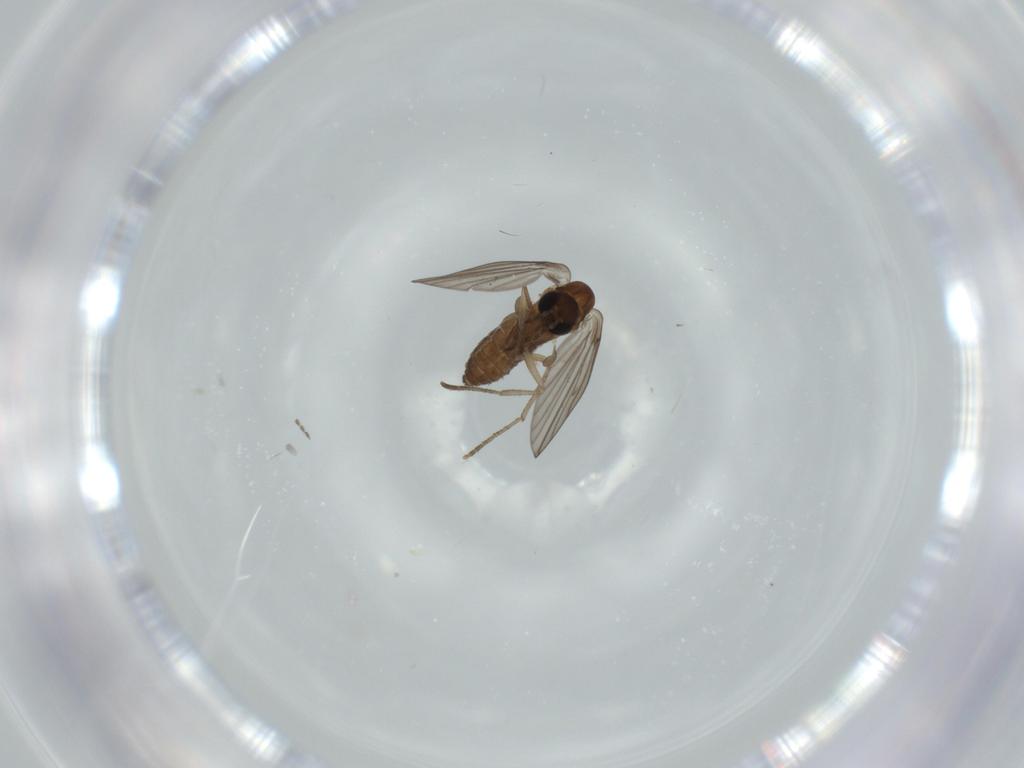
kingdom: Animalia
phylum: Arthropoda
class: Insecta
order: Diptera
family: Psychodidae
